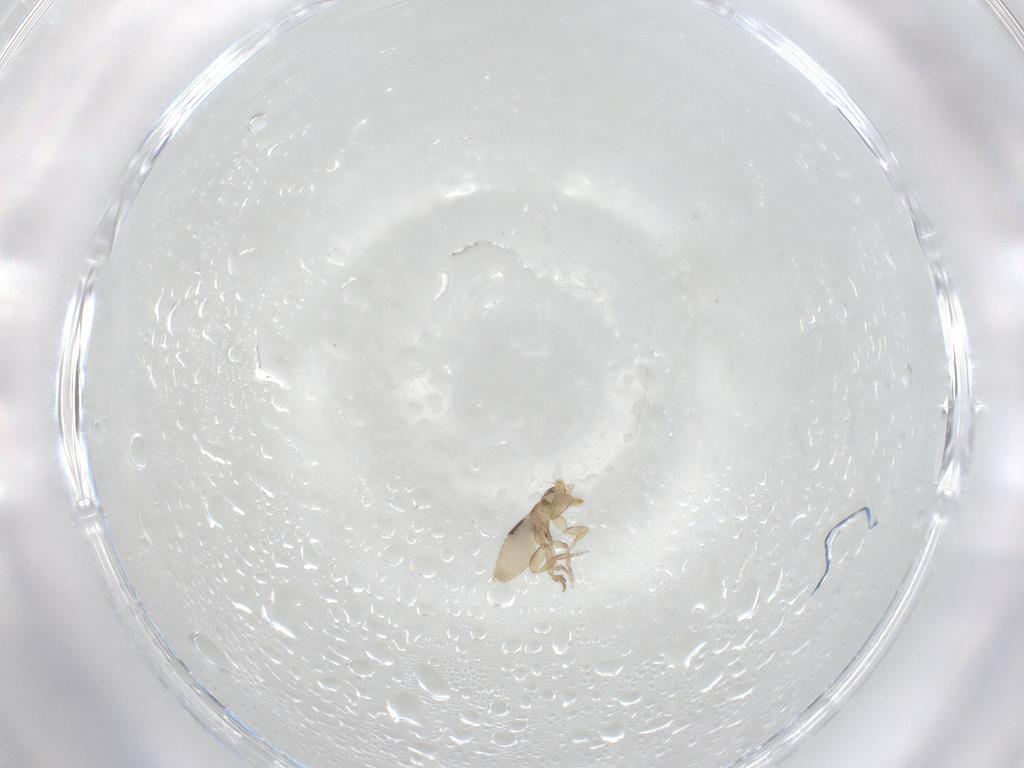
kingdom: Animalia
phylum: Arthropoda
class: Insecta
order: Diptera
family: Phoridae
